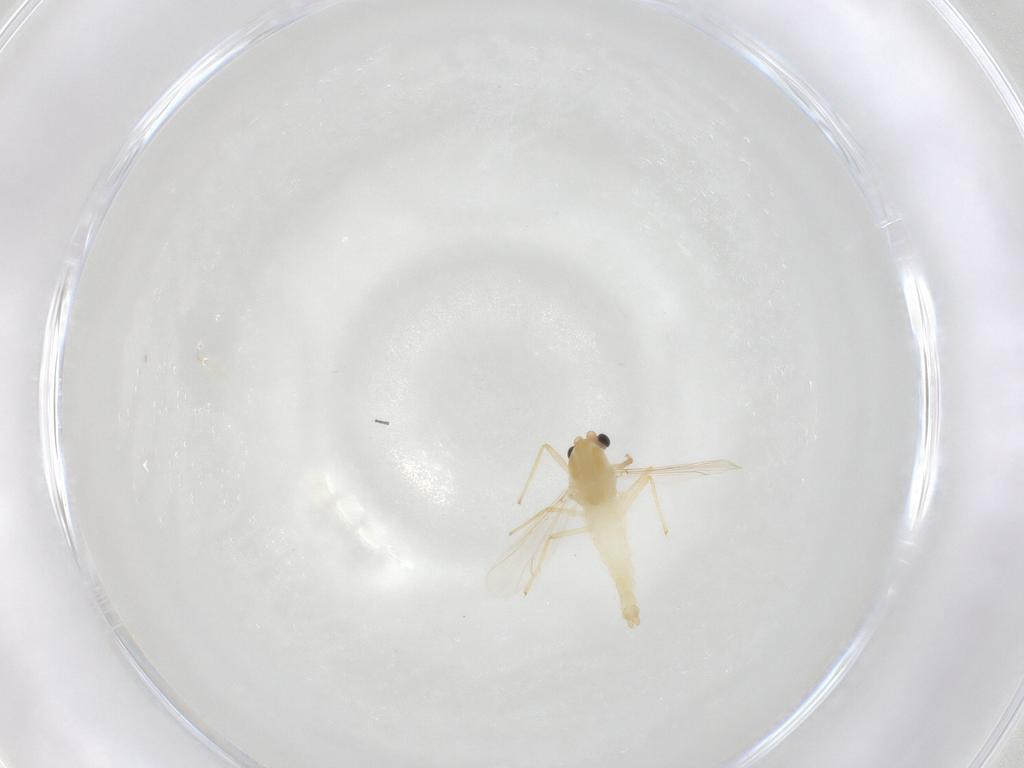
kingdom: Animalia
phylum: Arthropoda
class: Insecta
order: Diptera
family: Chironomidae
